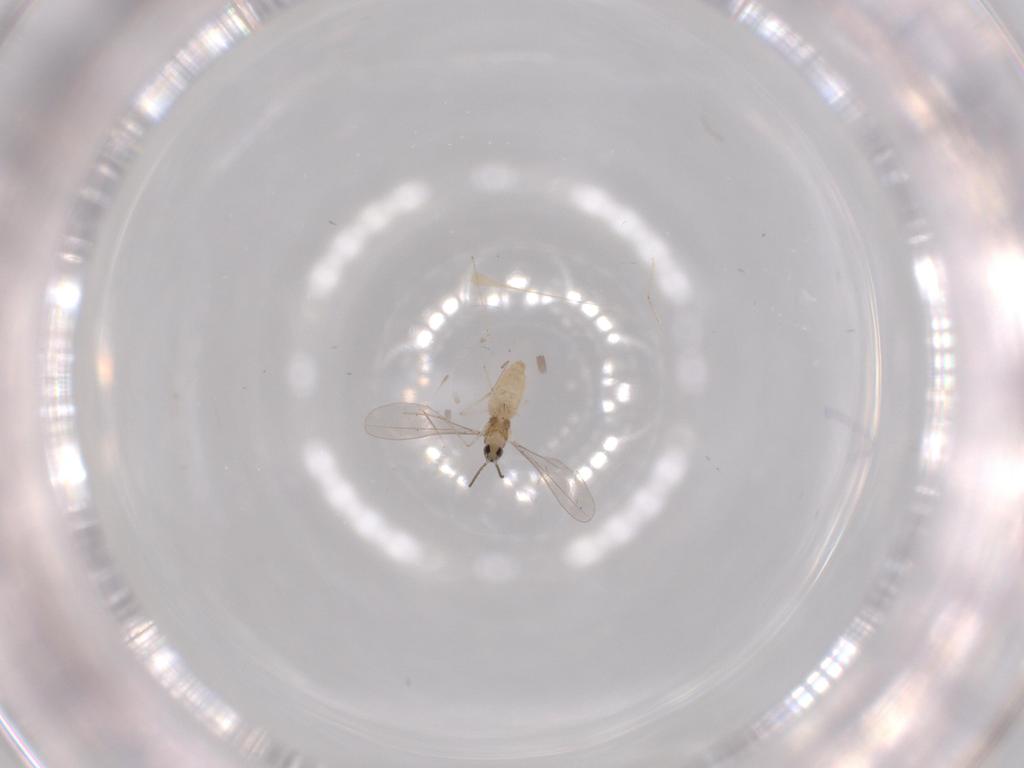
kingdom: Animalia
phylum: Arthropoda
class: Insecta
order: Diptera
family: Cecidomyiidae
